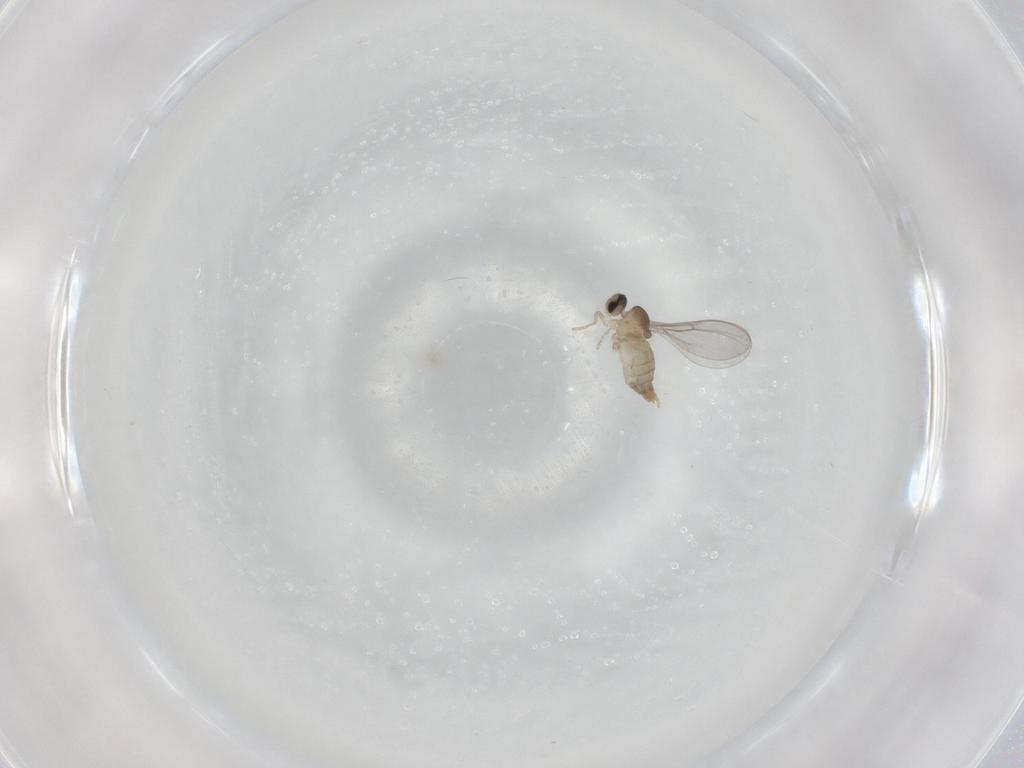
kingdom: Animalia
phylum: Arthropoda
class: Insecta
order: Diptera
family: Cecidomyiidae
